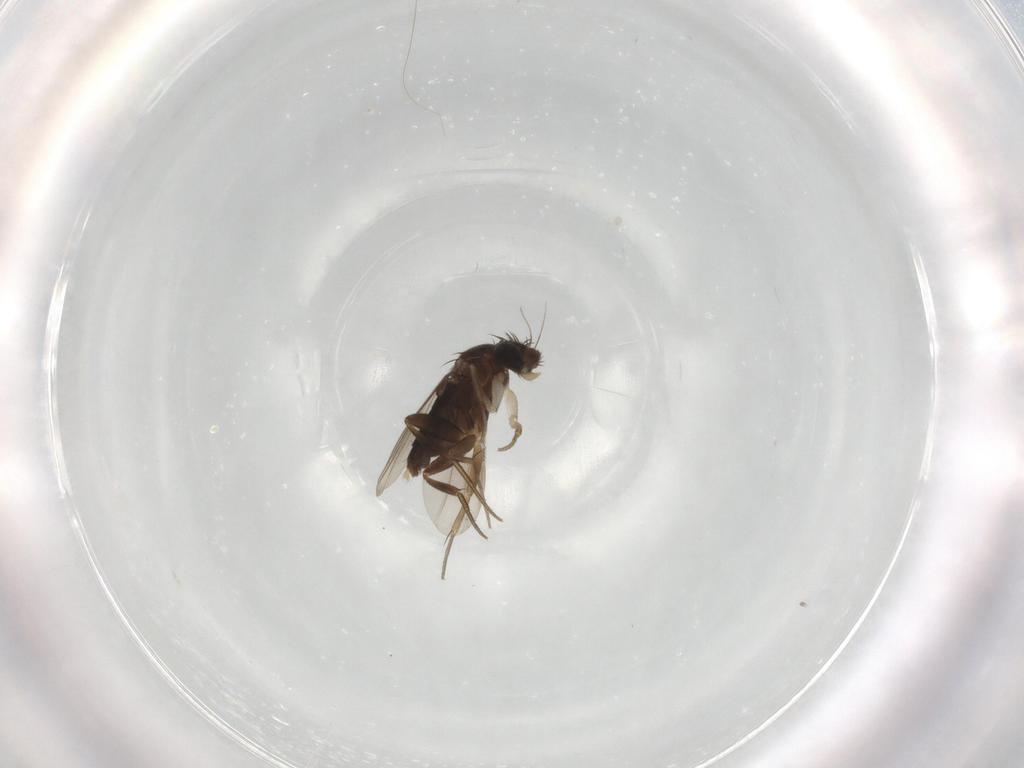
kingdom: Animalia
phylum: Arthropoda
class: Insecta
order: Diptera
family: Phoridae
